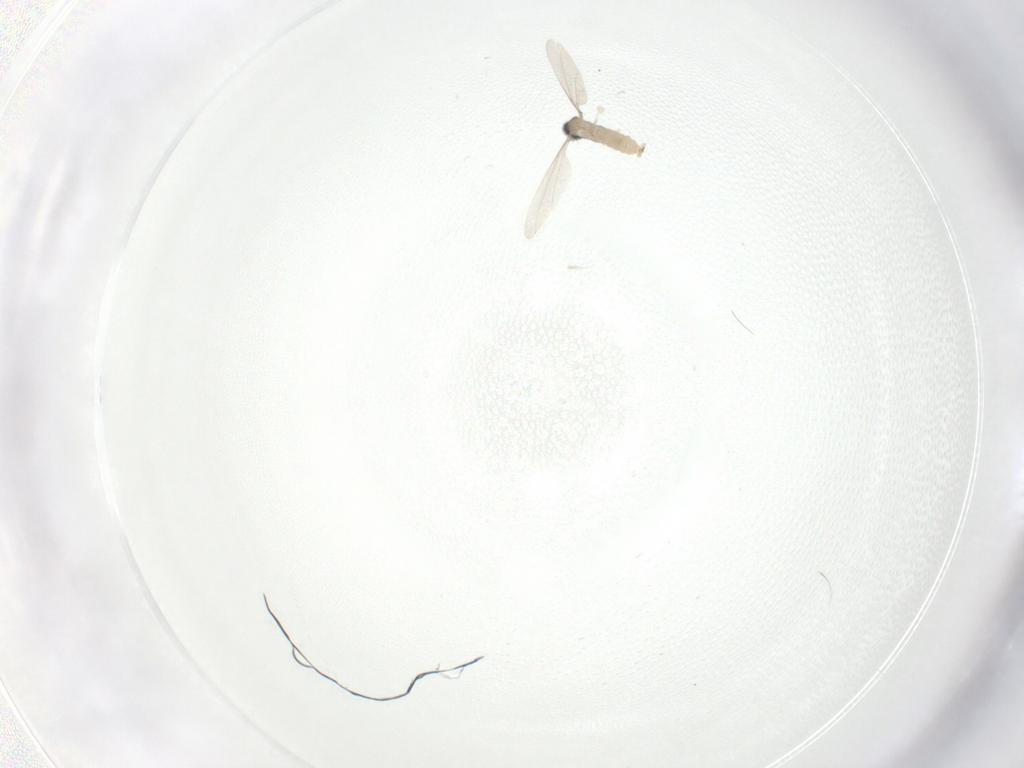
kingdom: Animalia
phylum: Arthropoda
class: Insecta
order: Diptera
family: Cecidomyiidae
